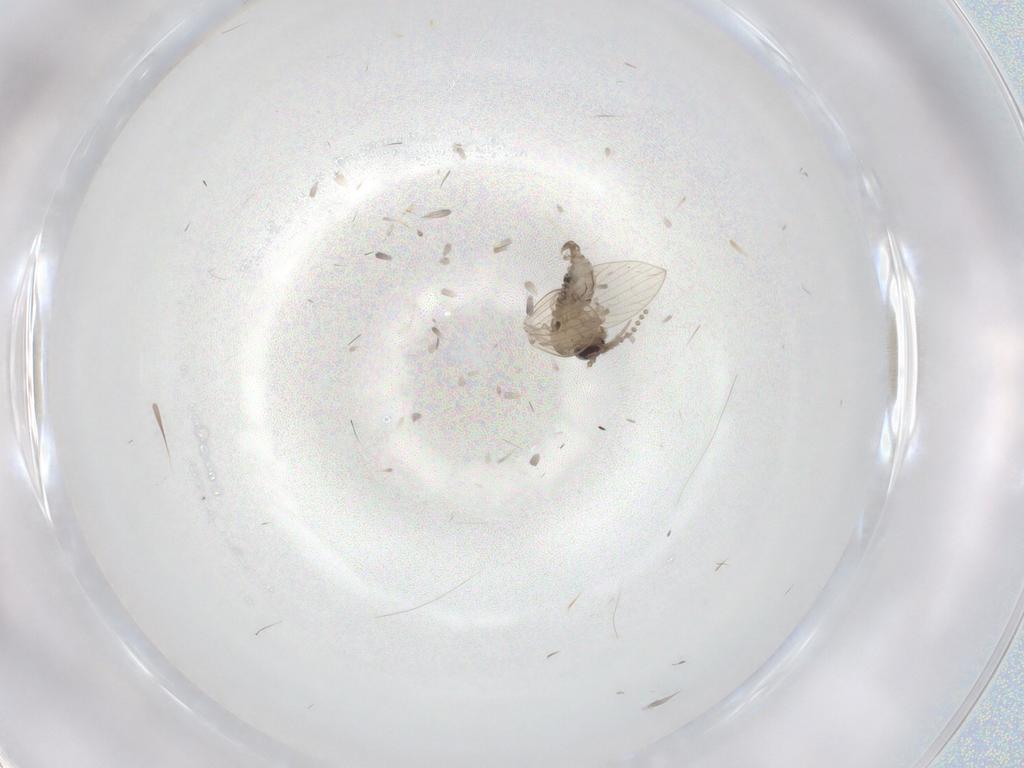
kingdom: Animalia
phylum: Arthropoda
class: Insecta
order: Diptera
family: Psychodidae
